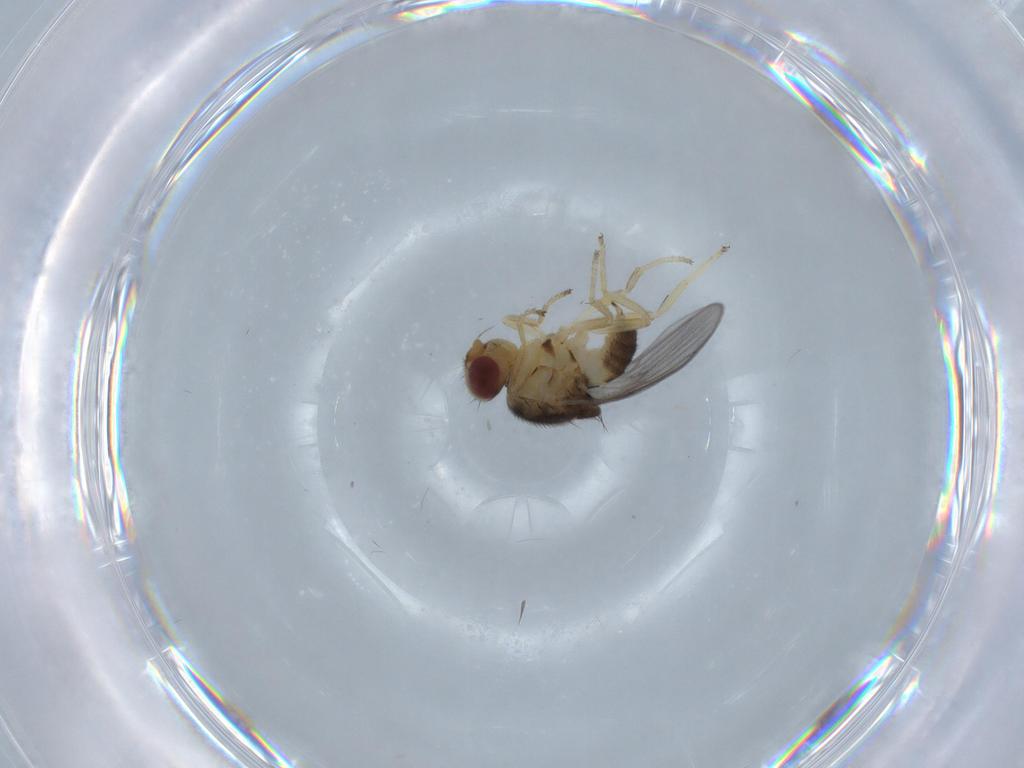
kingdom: Animalia
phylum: Arthropoda
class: Insecta
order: Diptera
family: Chloropidae
